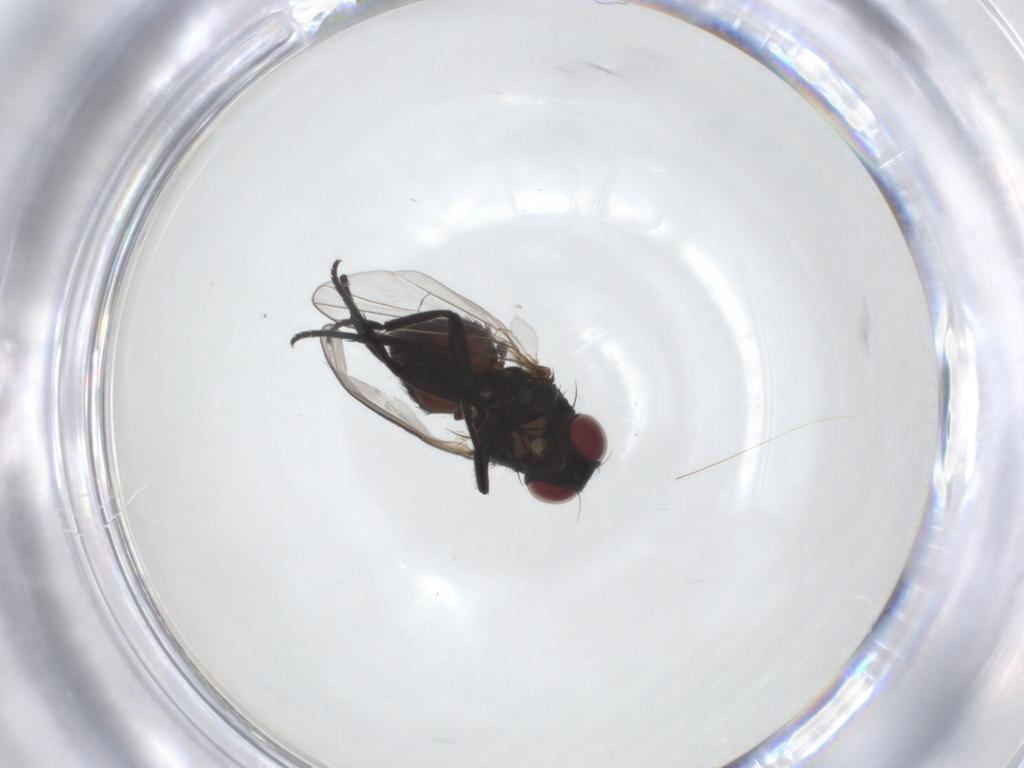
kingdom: Animalia
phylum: Arthropoda
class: Insecta
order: Diptera
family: Agromyzidae
